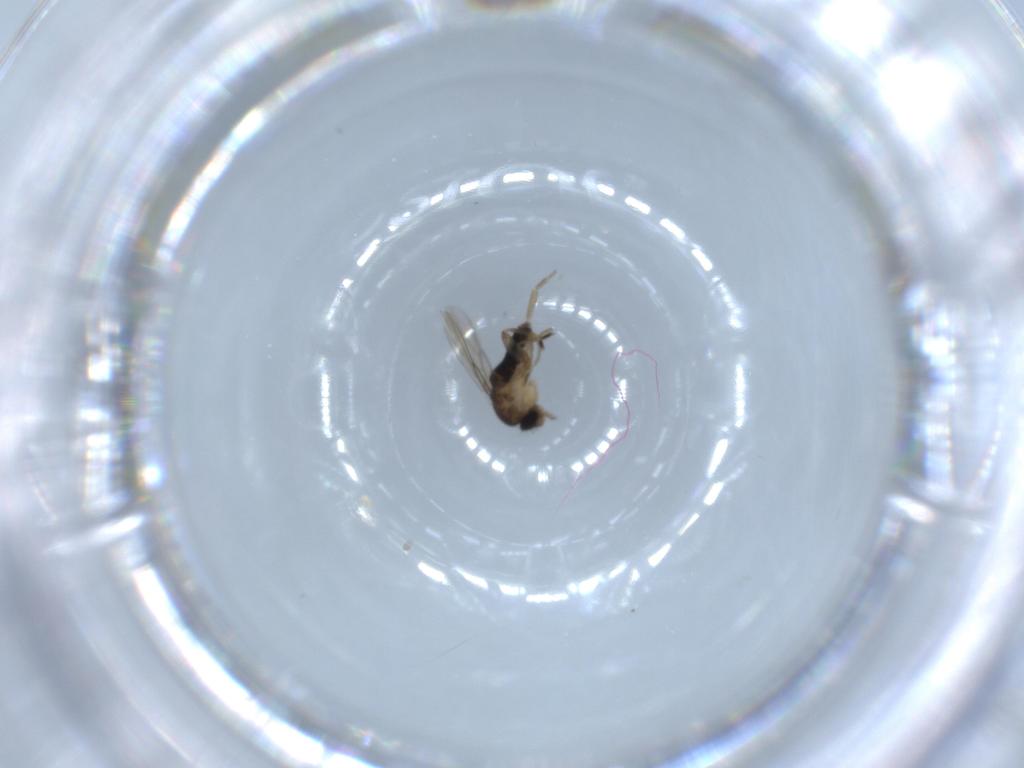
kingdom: Animalia
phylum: Arthropoda
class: Insecta
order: Diptera
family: Phoridae
